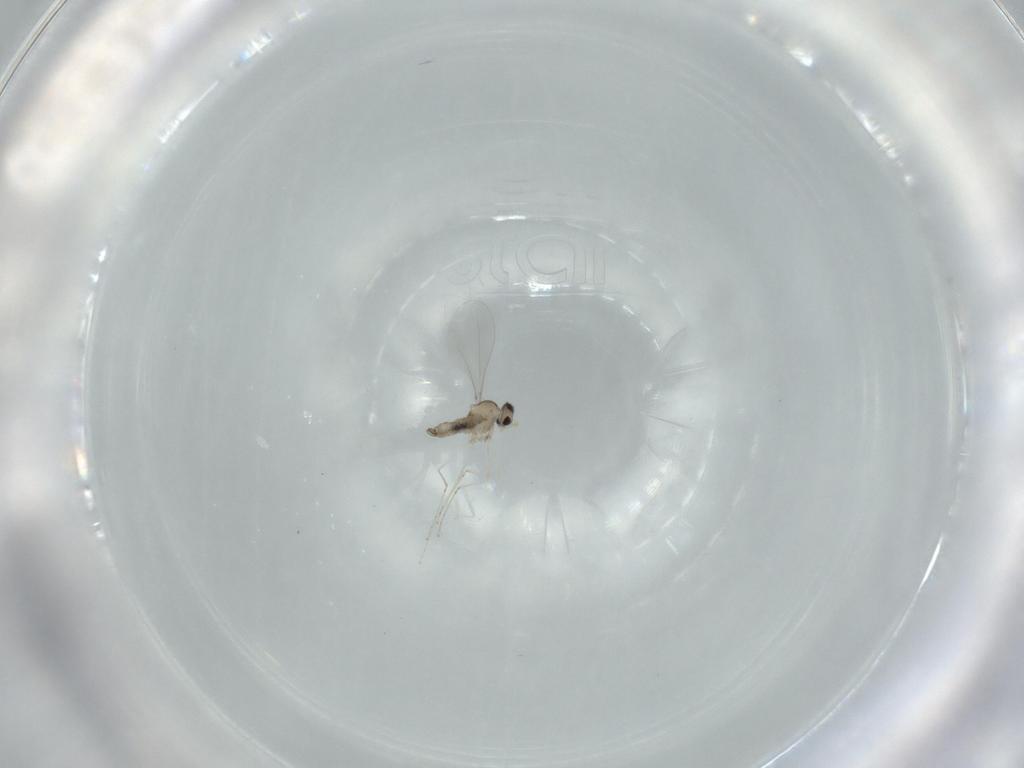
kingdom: Animalia
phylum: Arthropoda
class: Insecta
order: Diptera
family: Cecidomyiidae
